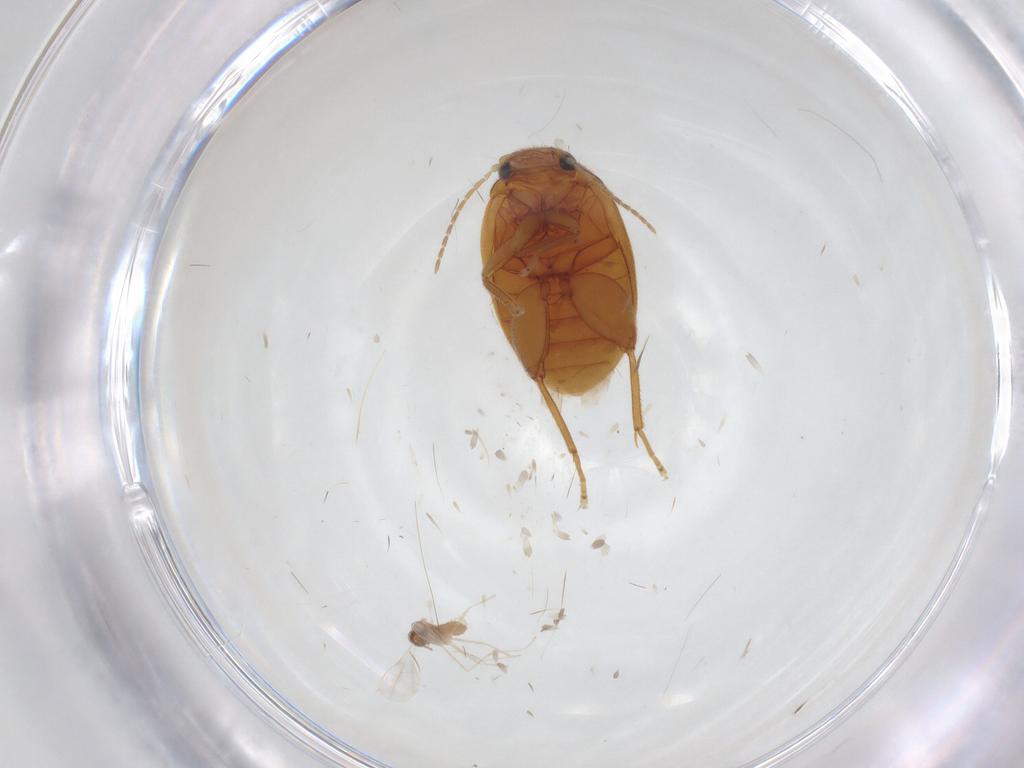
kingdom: Animalia
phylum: Arthropoda
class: Insecta
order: Coleoptera
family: Scirtidae
